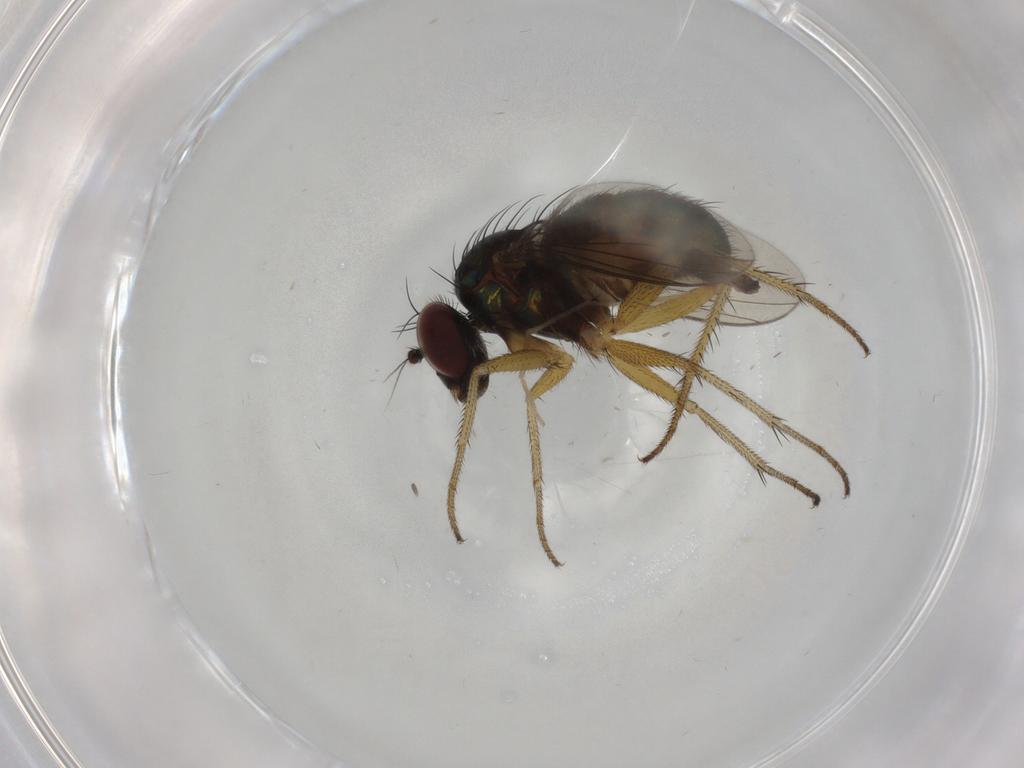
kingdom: Animalia
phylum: Arthropoda
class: Insecta
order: Diptera
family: Dolichopodidae
